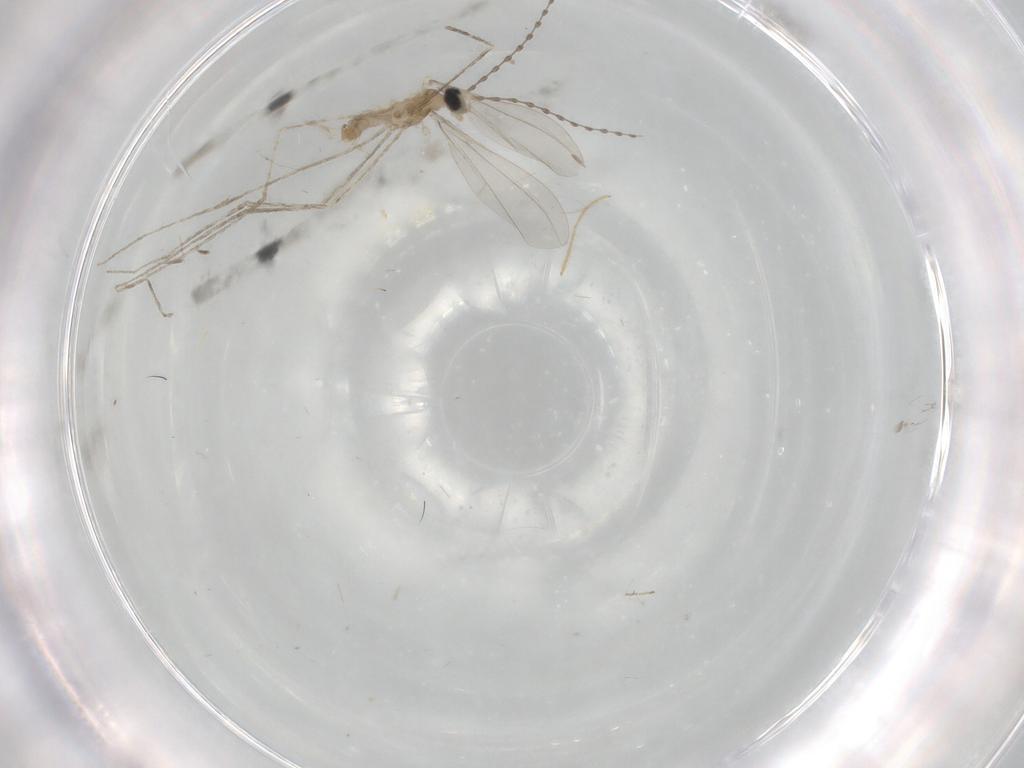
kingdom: Animalia
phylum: Arthropoda
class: Insecta
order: Diptera
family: Cecidomyiidae
